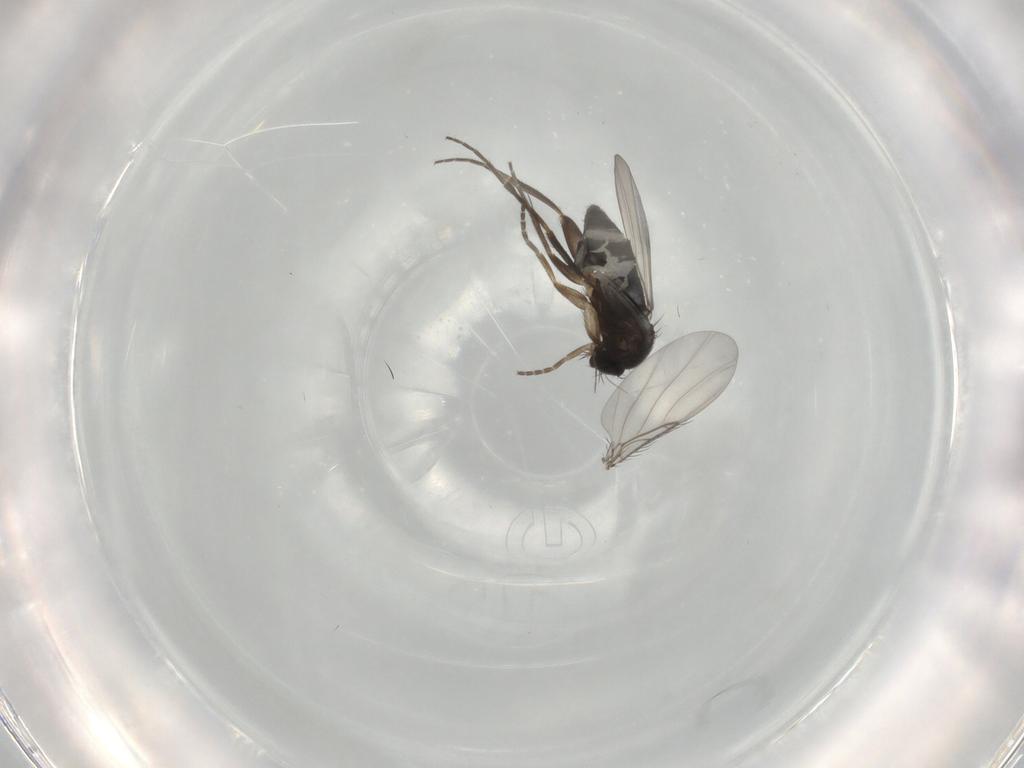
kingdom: Animalia
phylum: Arthropoda
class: Insecta
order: Diptera
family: Phoridae
